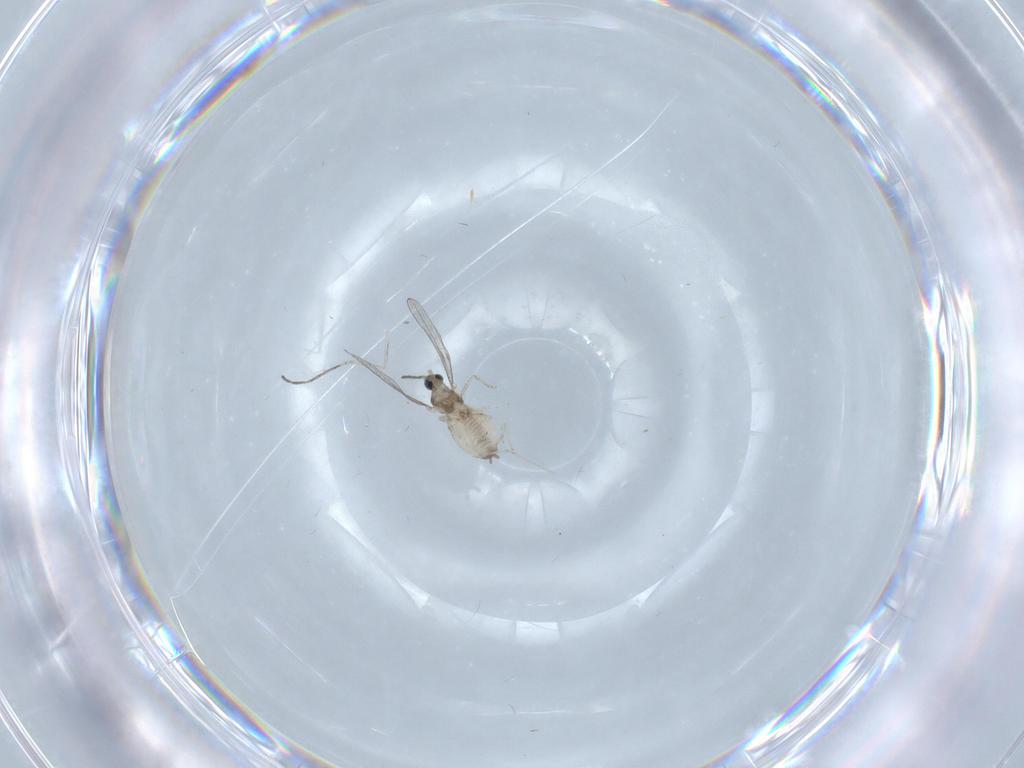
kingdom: Animalia
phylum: Arthropoda
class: Insecta
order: Diptera
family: Cecidomyiidae
